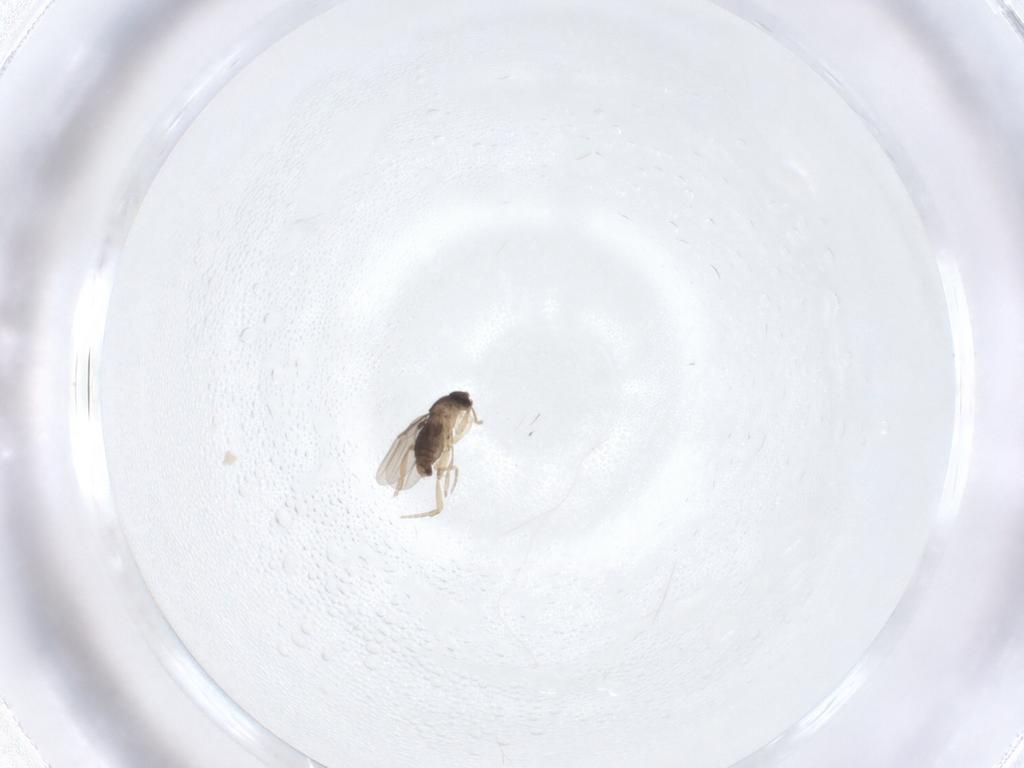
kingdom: Animalia
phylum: Arthropoda
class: Insecta
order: Diptera
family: Phoridae
